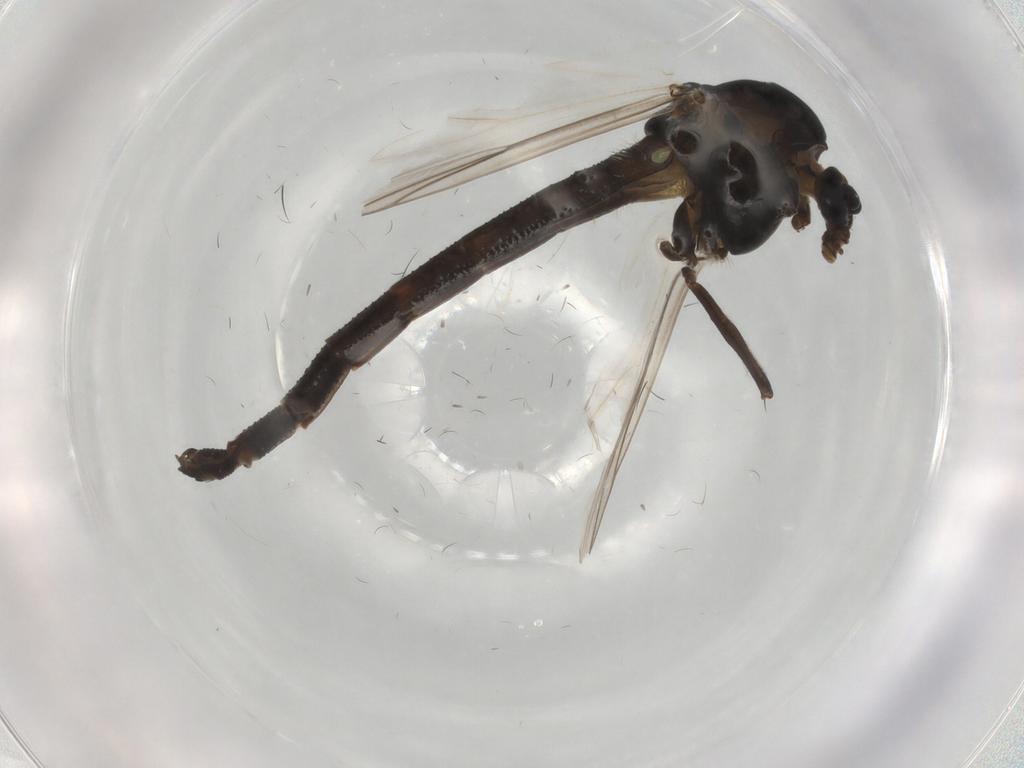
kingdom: Animalia
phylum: Arthropoda
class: Insecta
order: Diptera
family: Chironomidae
